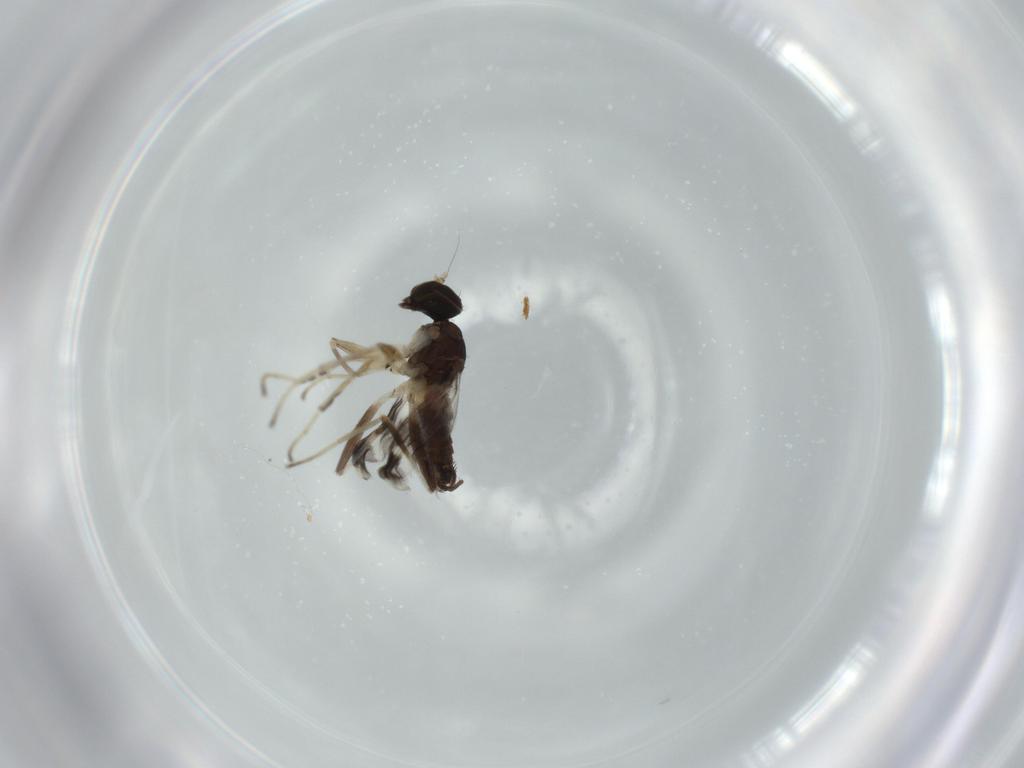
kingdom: Animalia
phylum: Arthropoda
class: Insecta
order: Diptera
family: Hybotidae
